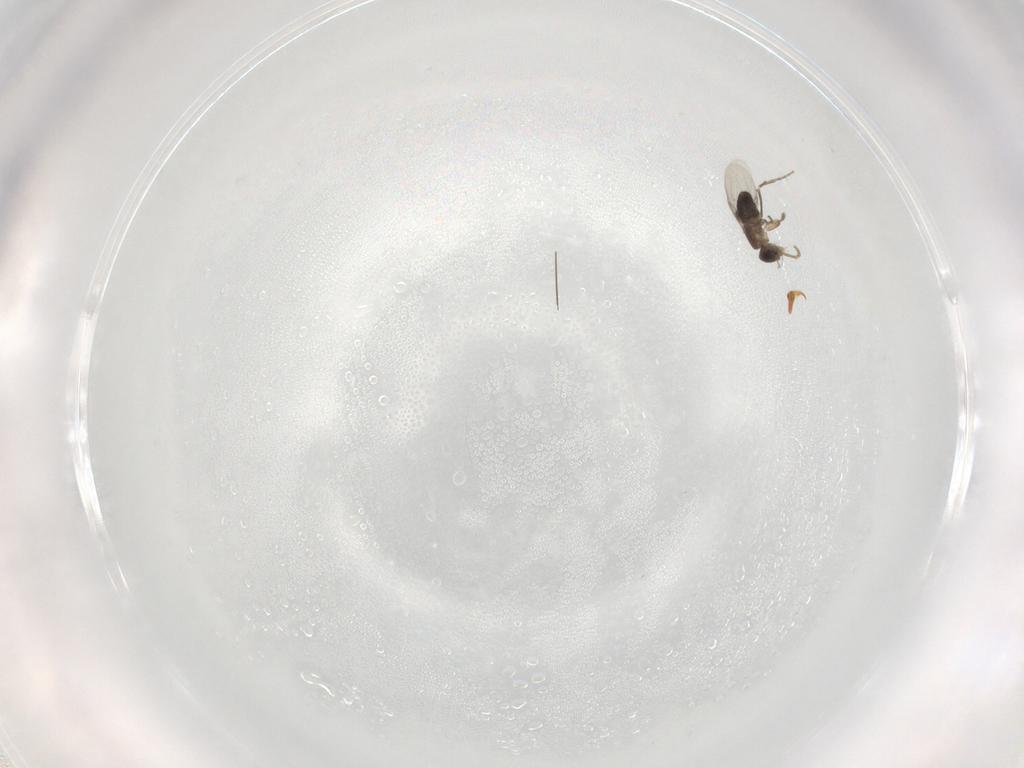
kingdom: Animalia
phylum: Arthropoda
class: Insecta
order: Diptera
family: Phoridae
